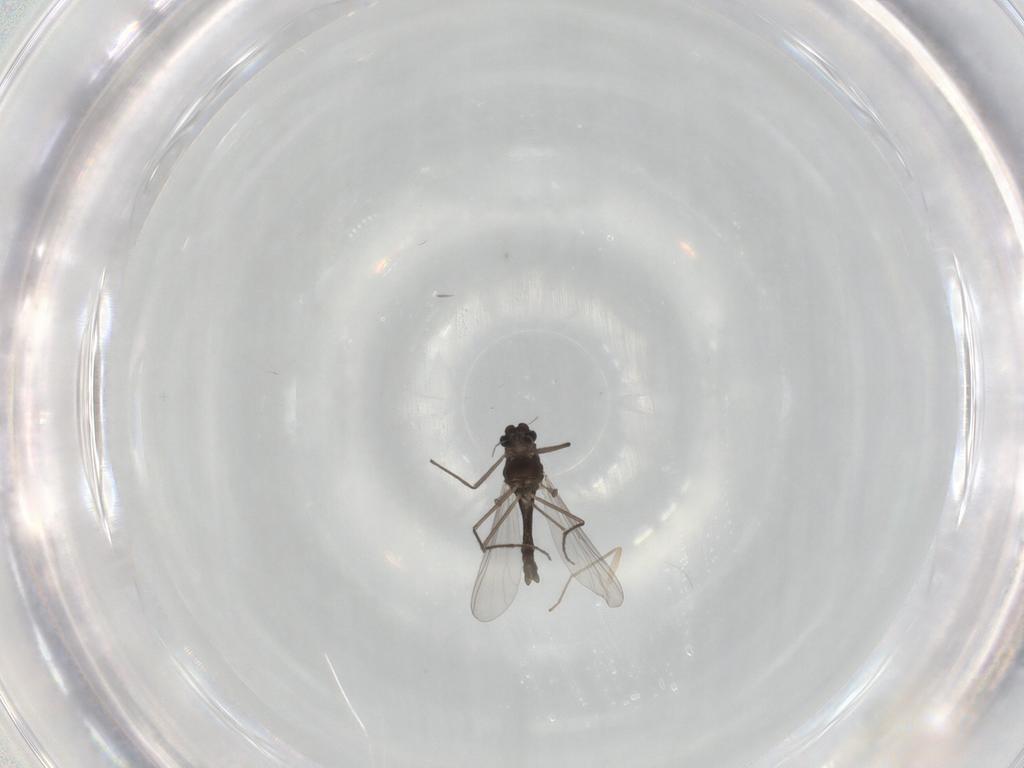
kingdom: Animalia
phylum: Arthropoda
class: Insecta
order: Diptera
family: Chironomidae
